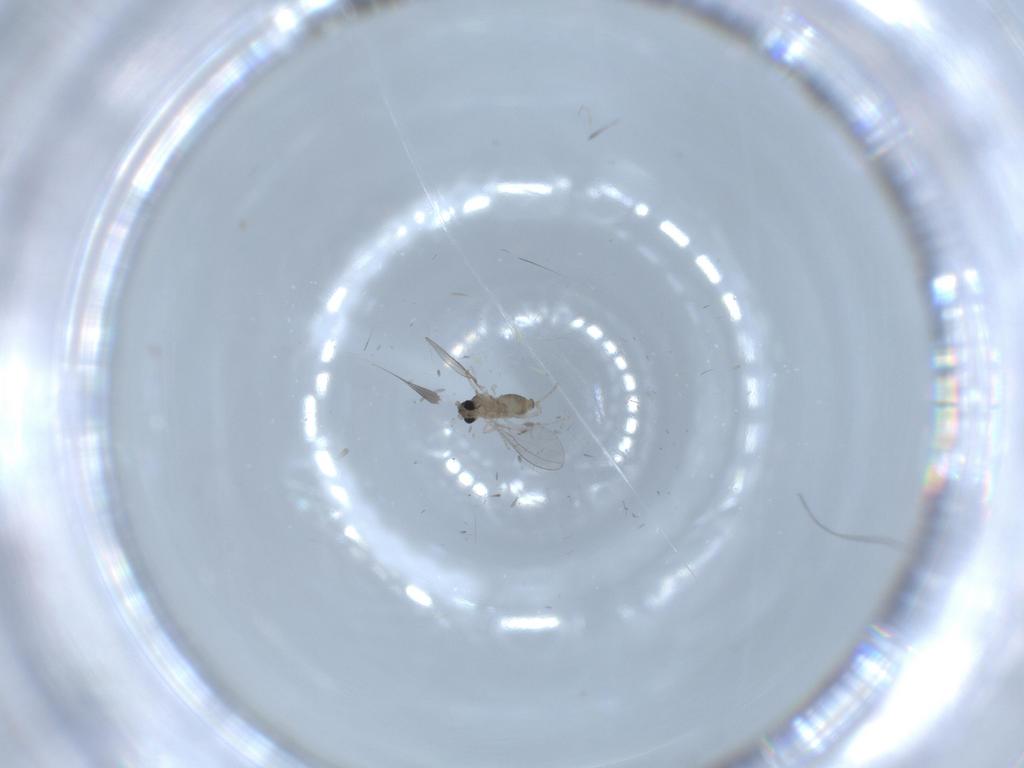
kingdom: Animalia
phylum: Arthropoda
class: Insecta
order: Diptera
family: Cecidomyiidae
